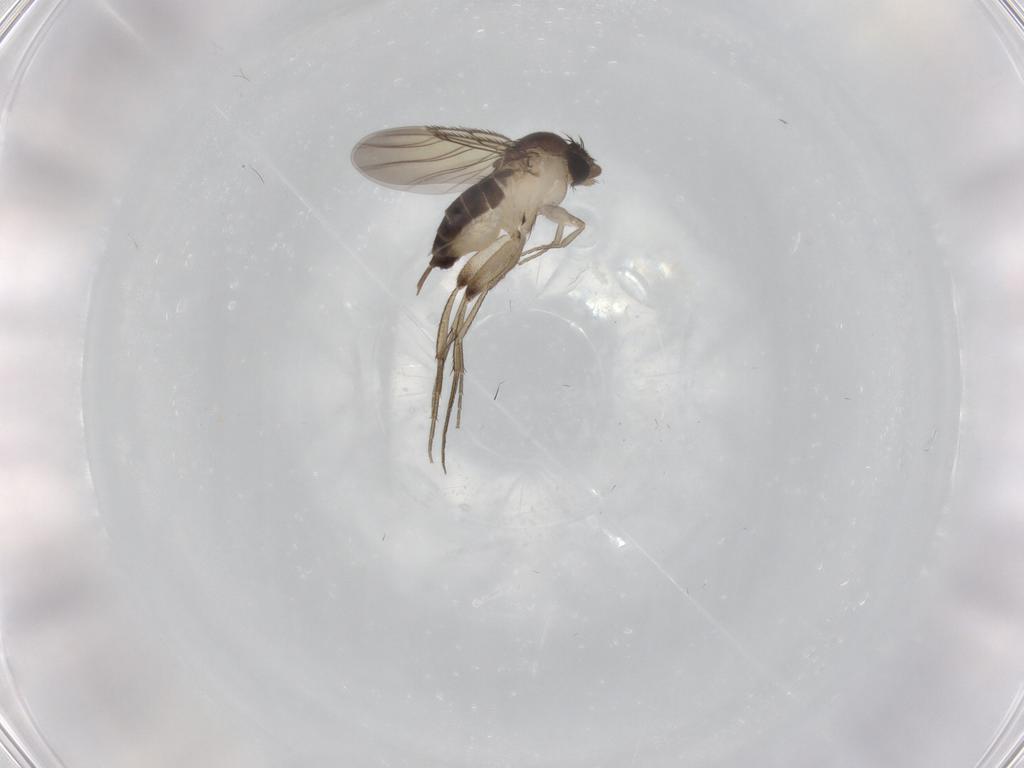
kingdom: Animalia
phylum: Arthropoda
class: Insecta
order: Diptera
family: Phoridae
